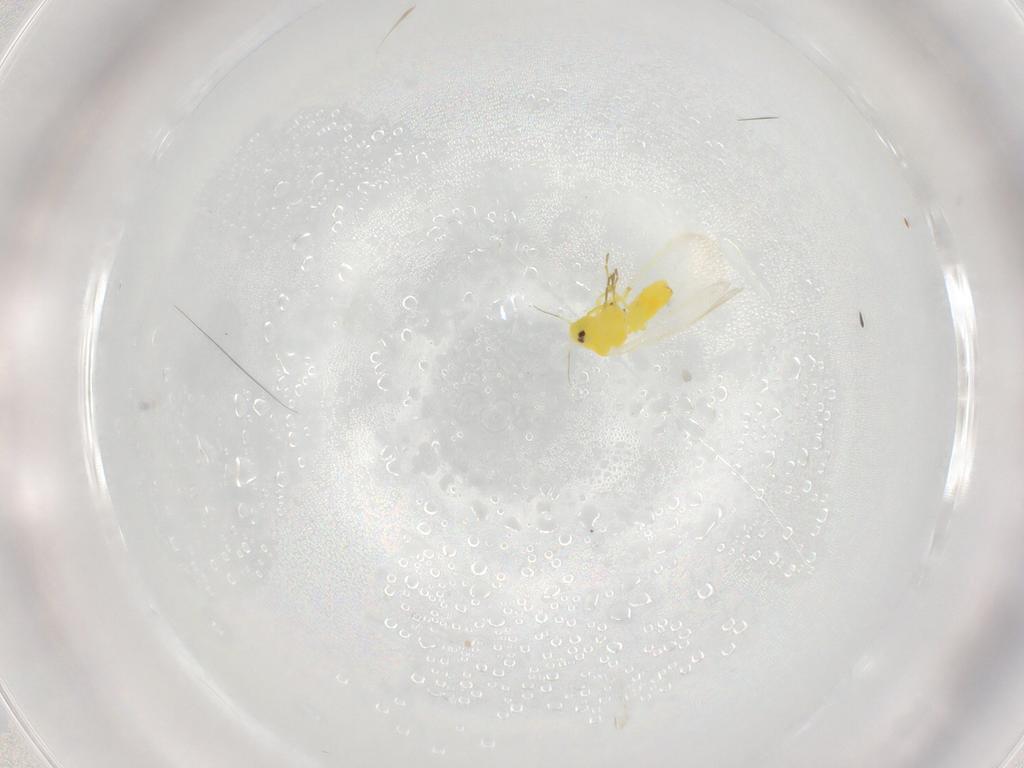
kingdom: Animalia
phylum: Arthropoda
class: Insecta
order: Hemiptera
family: Aleyrodidae
